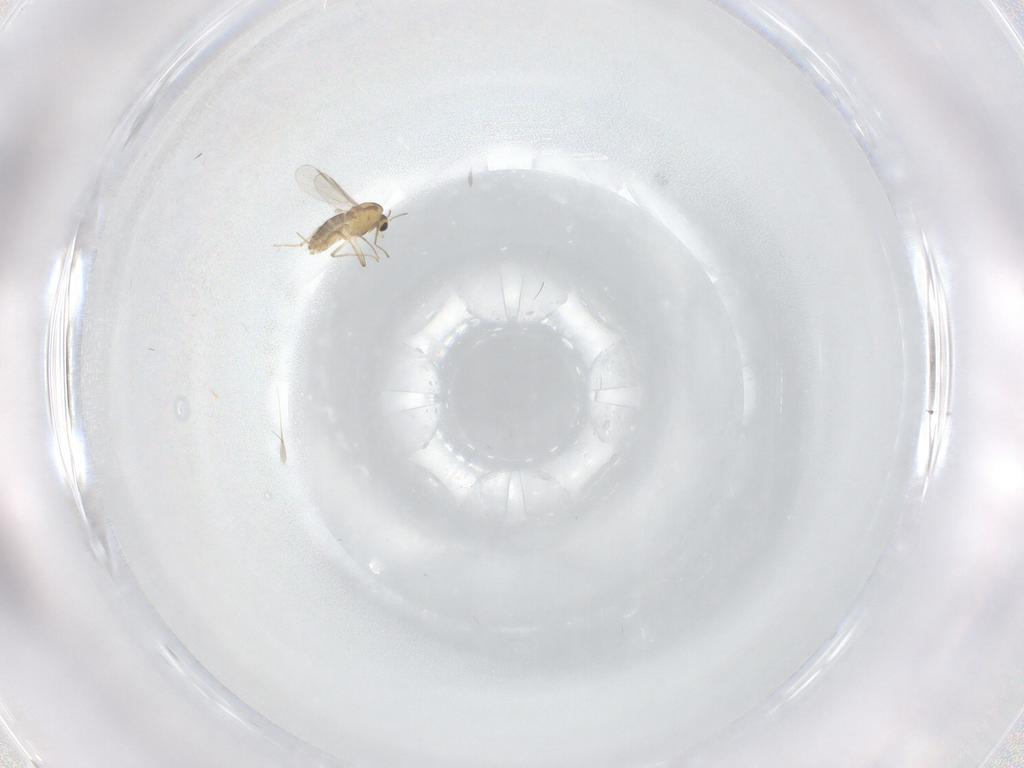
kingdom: Animalia
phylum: Arthropoda
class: Insecta
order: Diptera
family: Chironomidae
